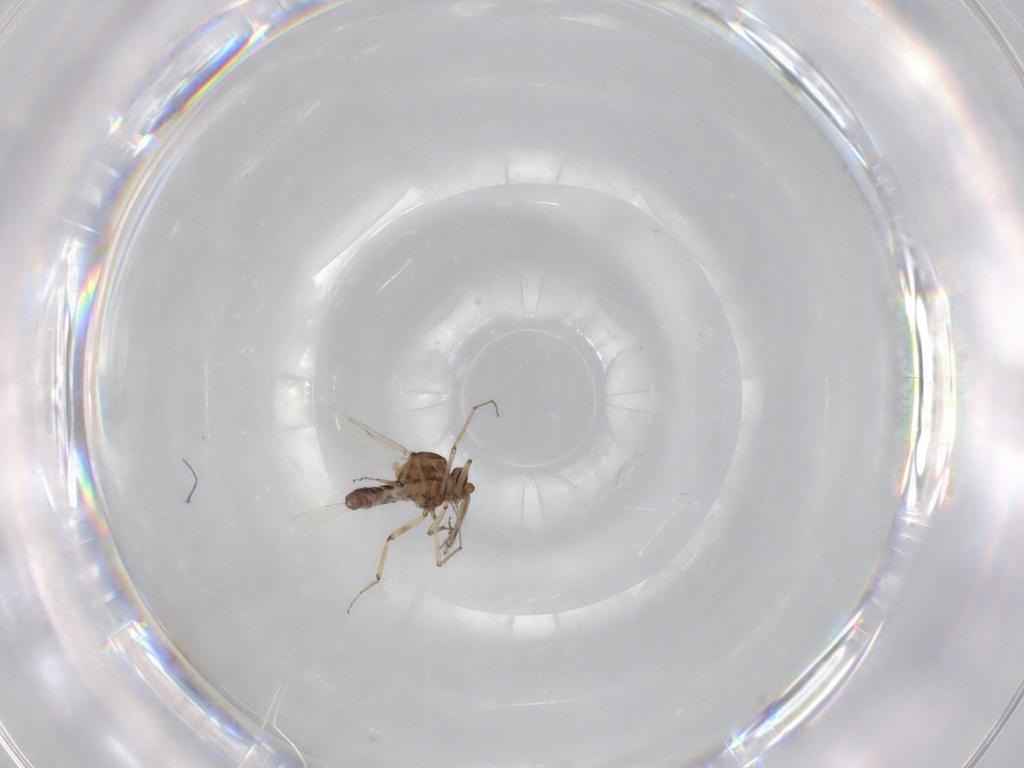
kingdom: Animalia
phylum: Arthropoda
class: Insecta
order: Diptera
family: Ceratopogonidae
